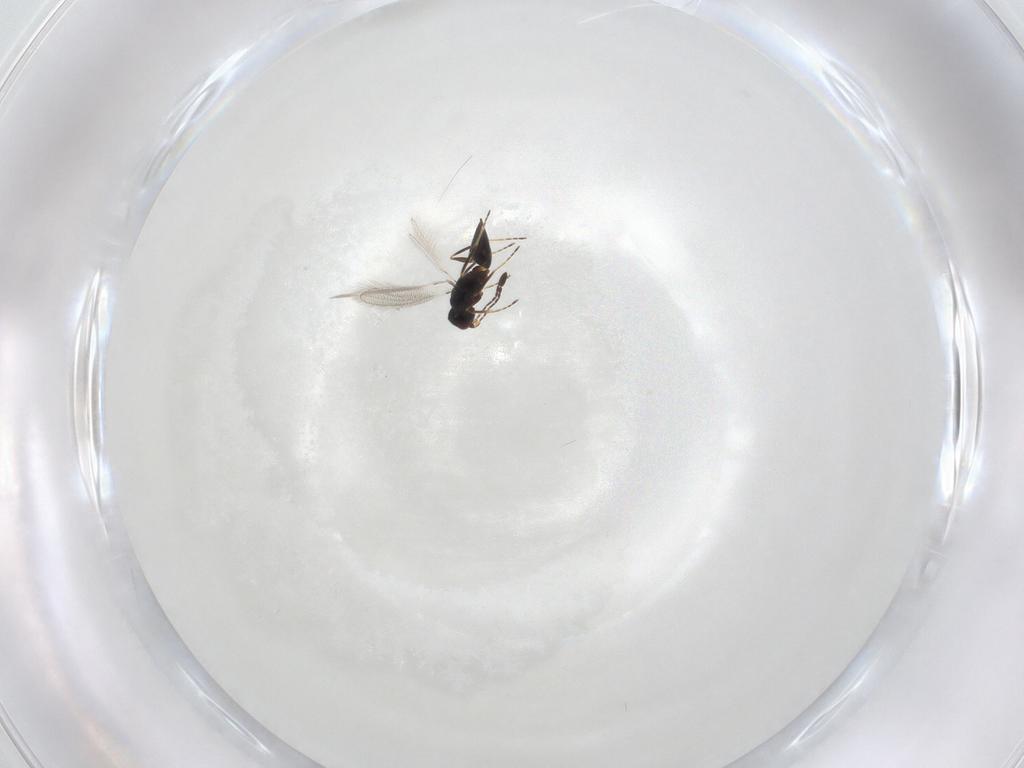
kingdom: Animalia
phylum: Arthropoda
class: Insecta
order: Hymenoptera
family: Mymaridae
